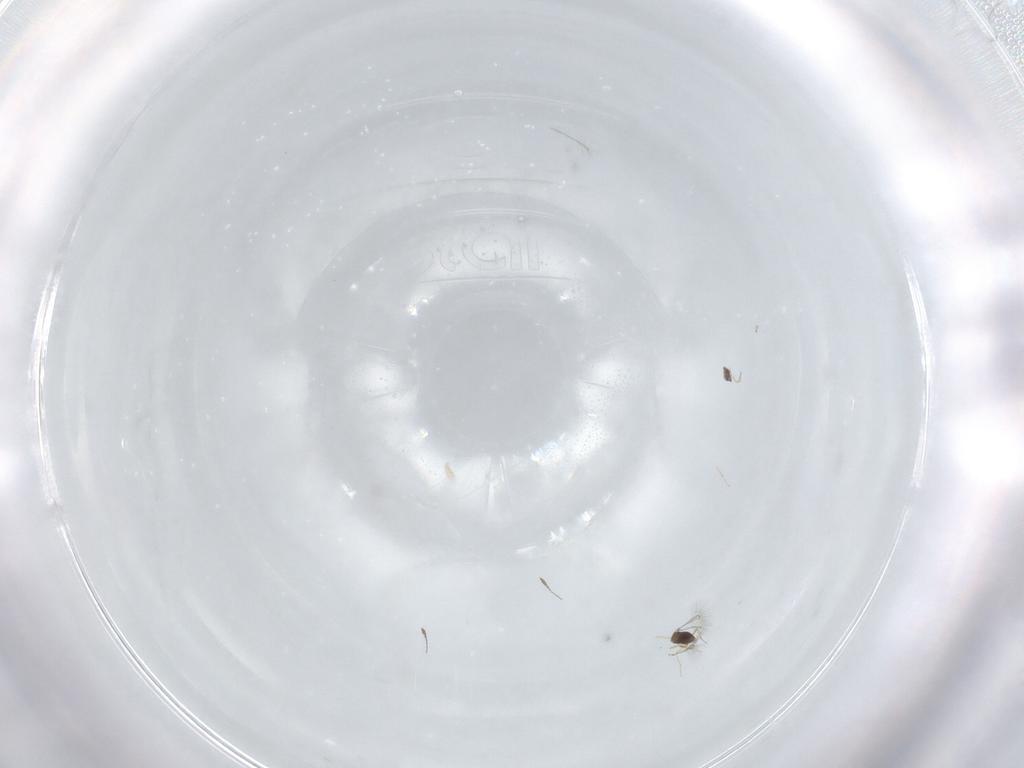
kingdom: Animalia
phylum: Arthropoda
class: Insecta
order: Hymenoptera
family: Mymaridae
